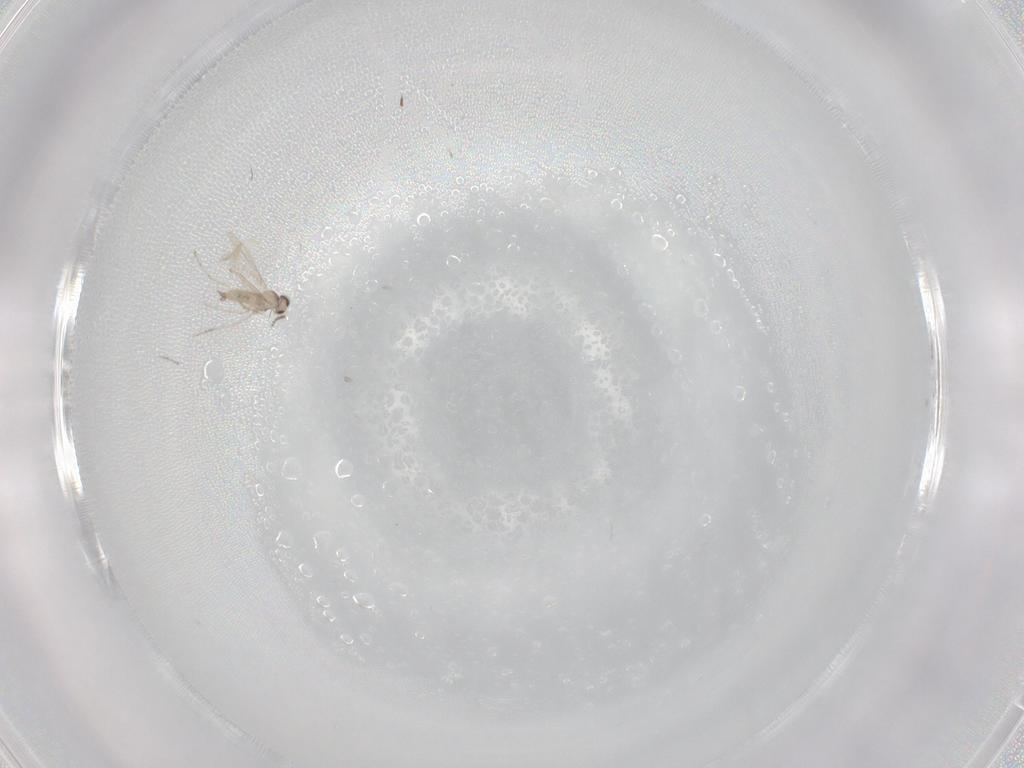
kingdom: Animalia
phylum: Arthropoda
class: Insecta
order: Diptera
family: Cecidomyiidae
